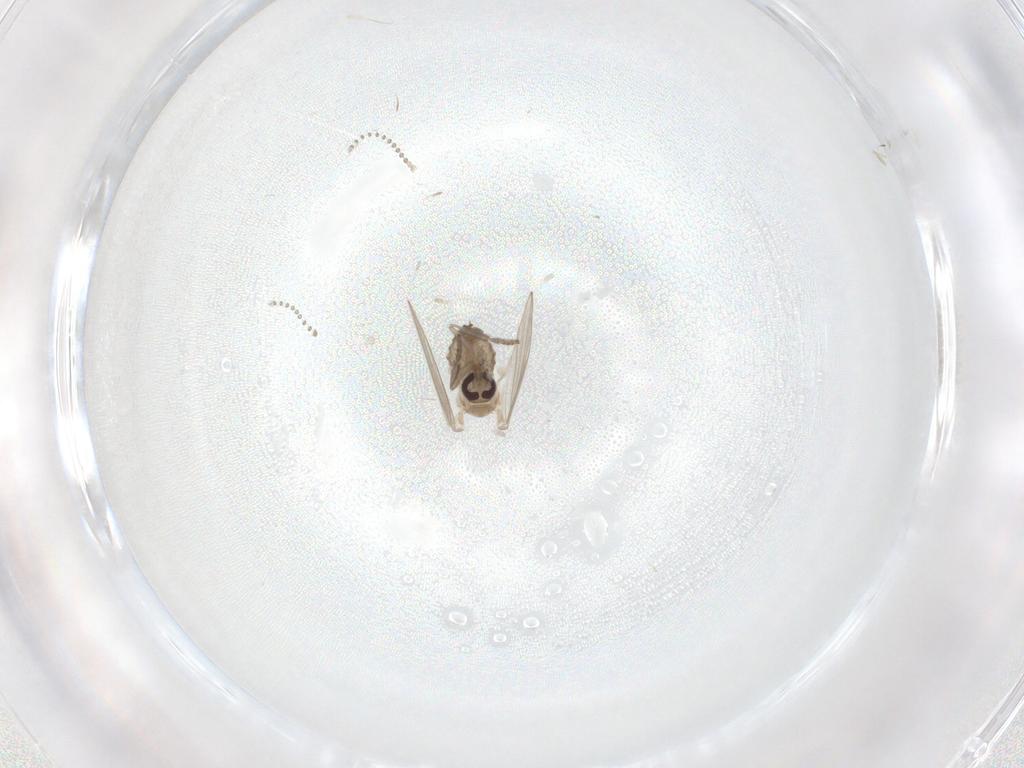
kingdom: Animalia
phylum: Arthropoda
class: Insecta
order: Diptera
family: Psychodidae
